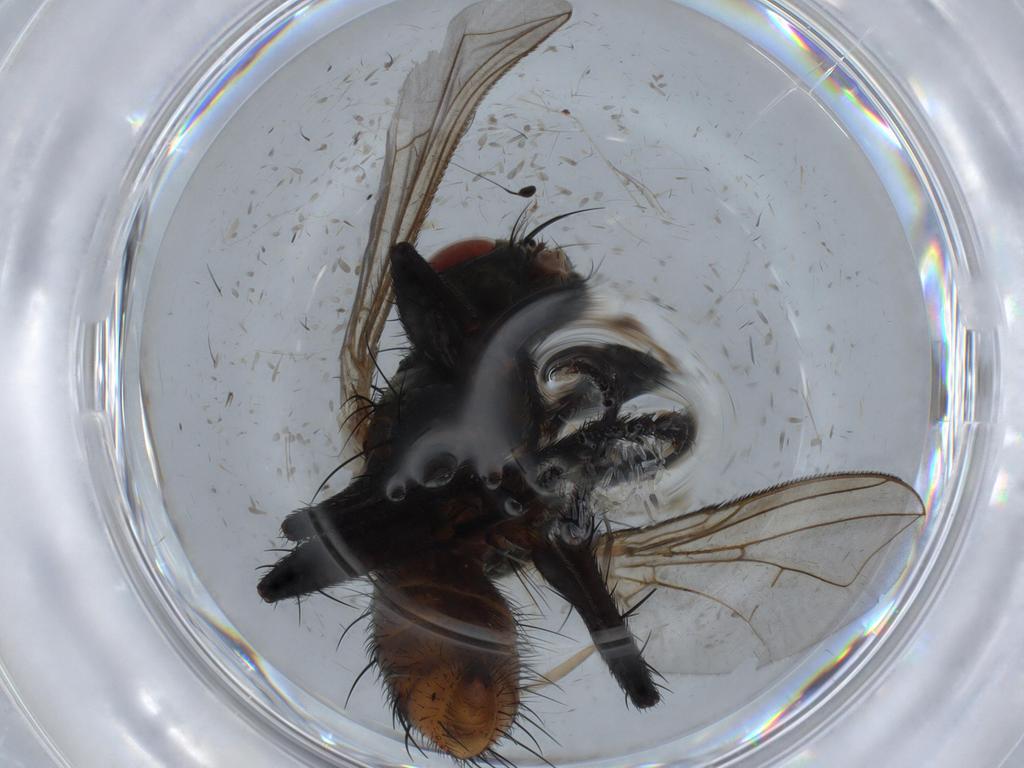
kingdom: Animalia
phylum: Arthropoda
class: Insecta
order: Diptera
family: Sarcophagidae
